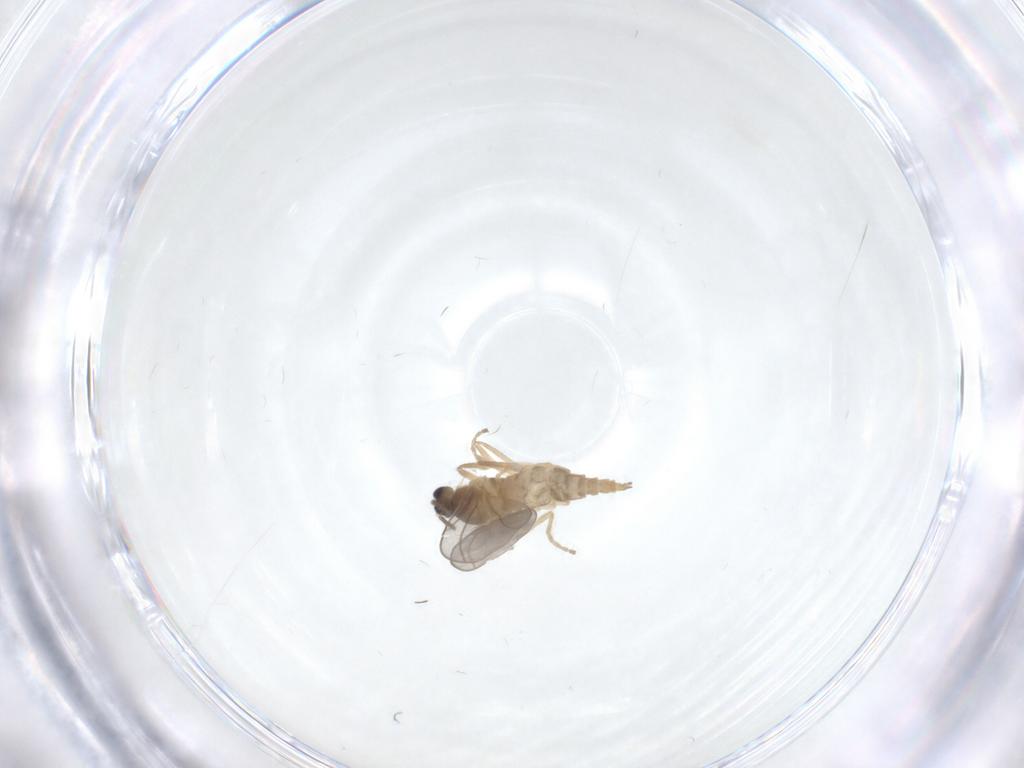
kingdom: Animalia
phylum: Arthropoda
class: Insecta
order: Diptera
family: Cecidomyiidae
